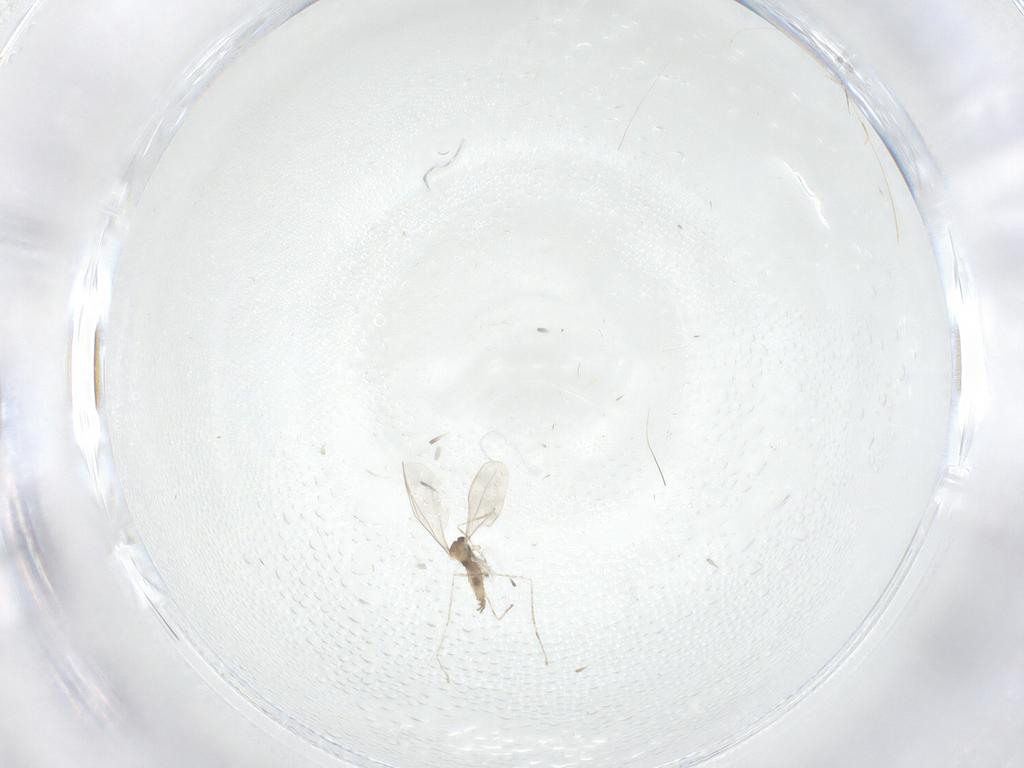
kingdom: Animalia
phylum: Arthropoda
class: Insecta
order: Diptera
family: Cecidomyiidae
